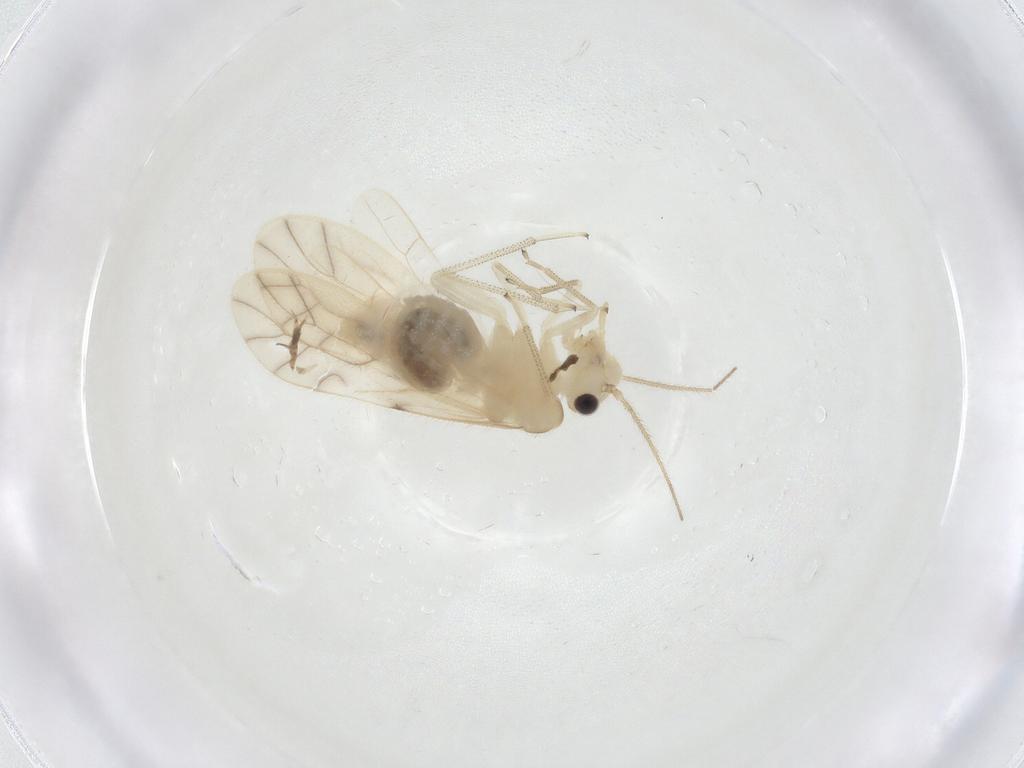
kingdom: Animalia
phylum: Arthropoda
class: Insecta
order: Psocodea
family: Caeciliusidae
